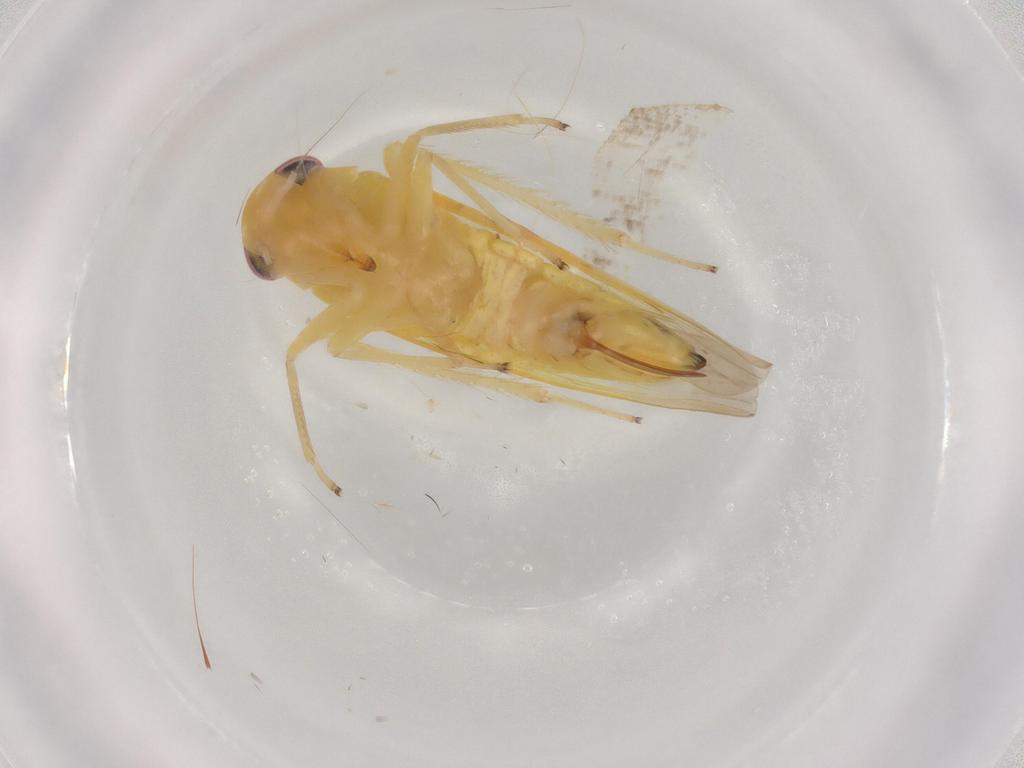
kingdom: Animalia
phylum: Arthropoda
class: Insecta
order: Hemiptera
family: Cicadellidae
